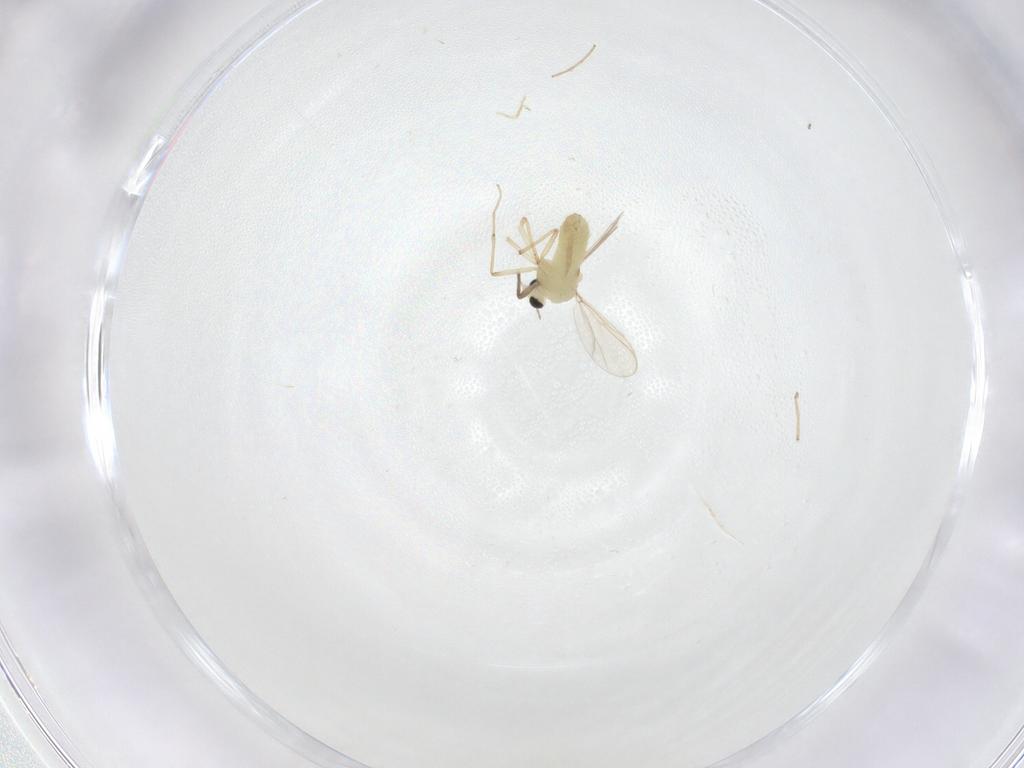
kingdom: Animalia
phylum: Arthropoda
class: Insecta
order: Diptera
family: Chironomidae
